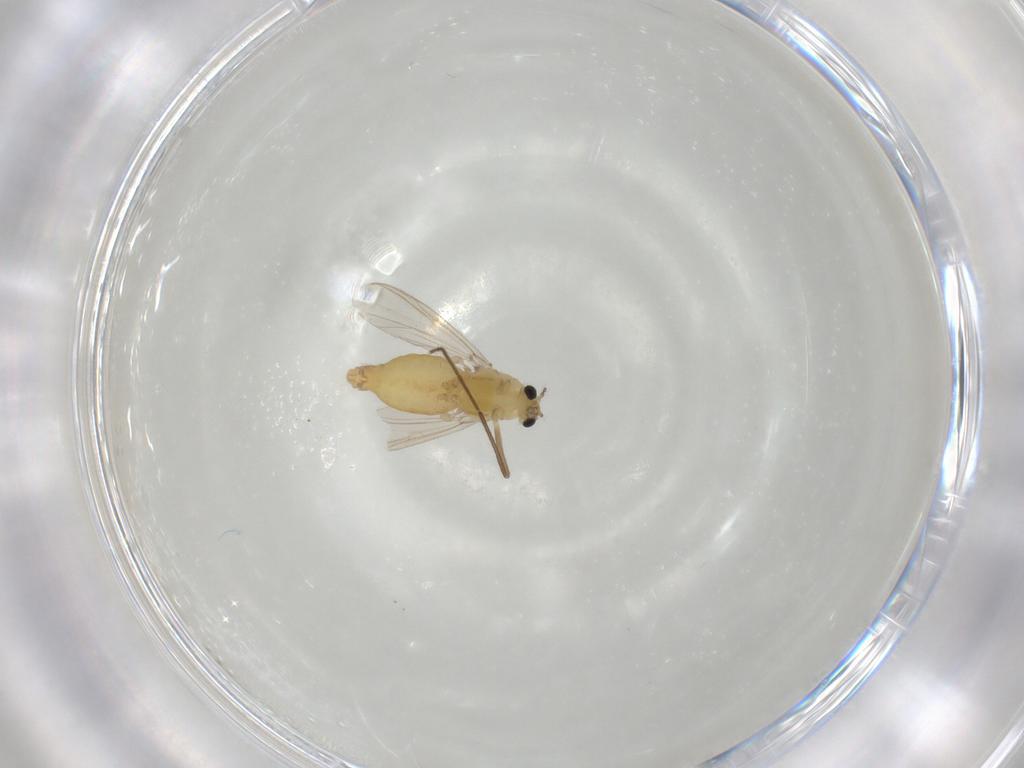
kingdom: Animalia
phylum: Arthropoda
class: Insecta
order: Diptera
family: Chironomidae
